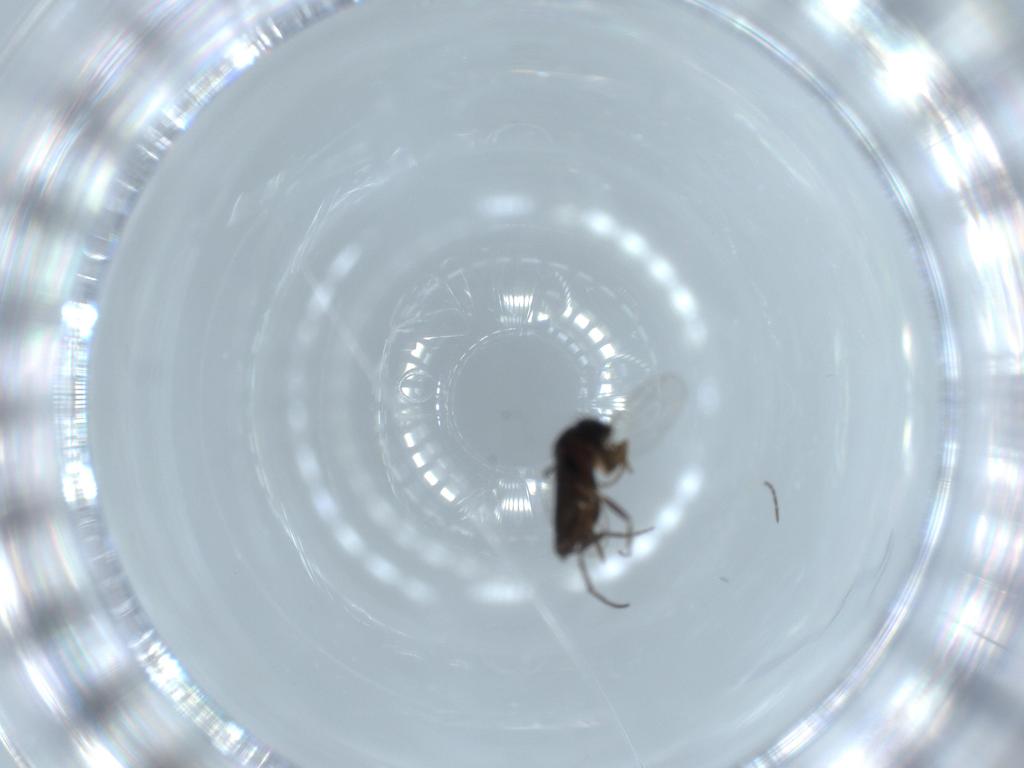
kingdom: Animalia
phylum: Arthropoda
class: Insecta
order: Diptera
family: Phoridae
